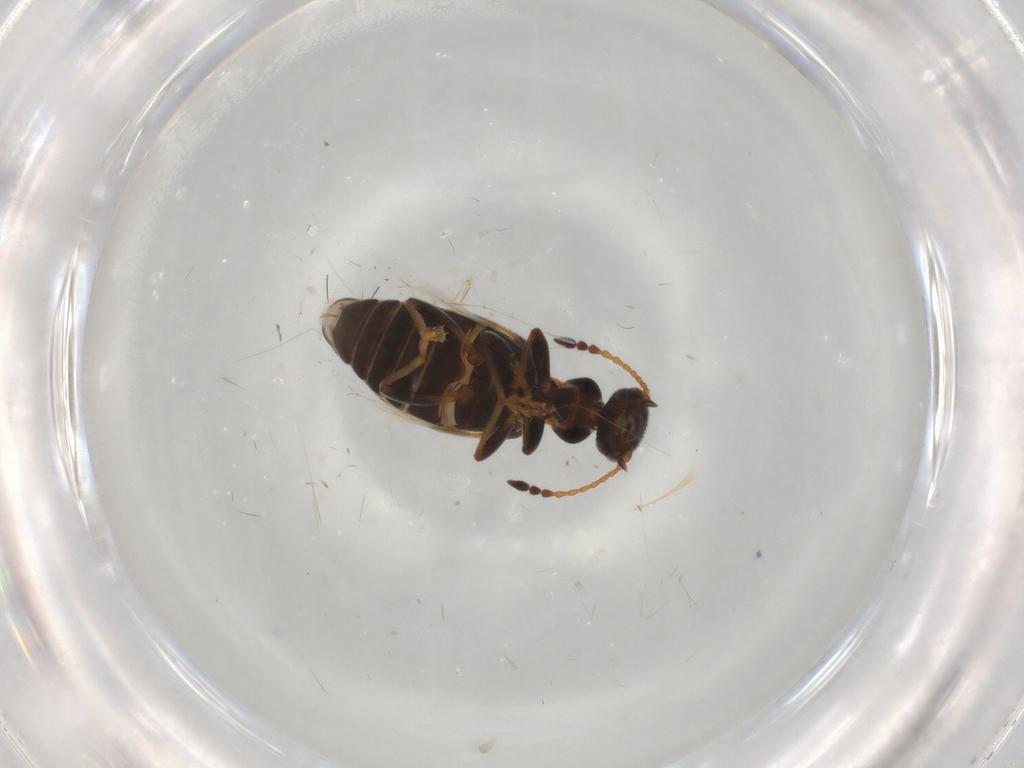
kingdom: Animalia
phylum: Arthropoda
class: Insecta
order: Coleoptera
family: Anthicidae
